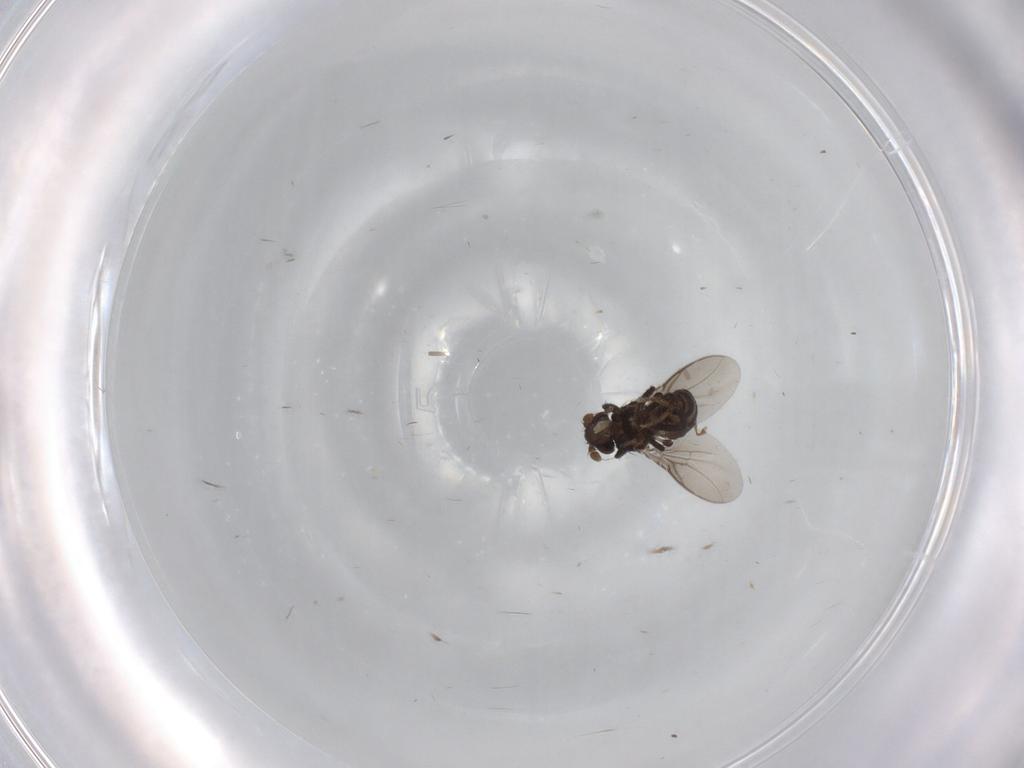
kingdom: Animalia
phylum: Arthropoda
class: Insecta
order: Diptera
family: Sphaeroceridae
